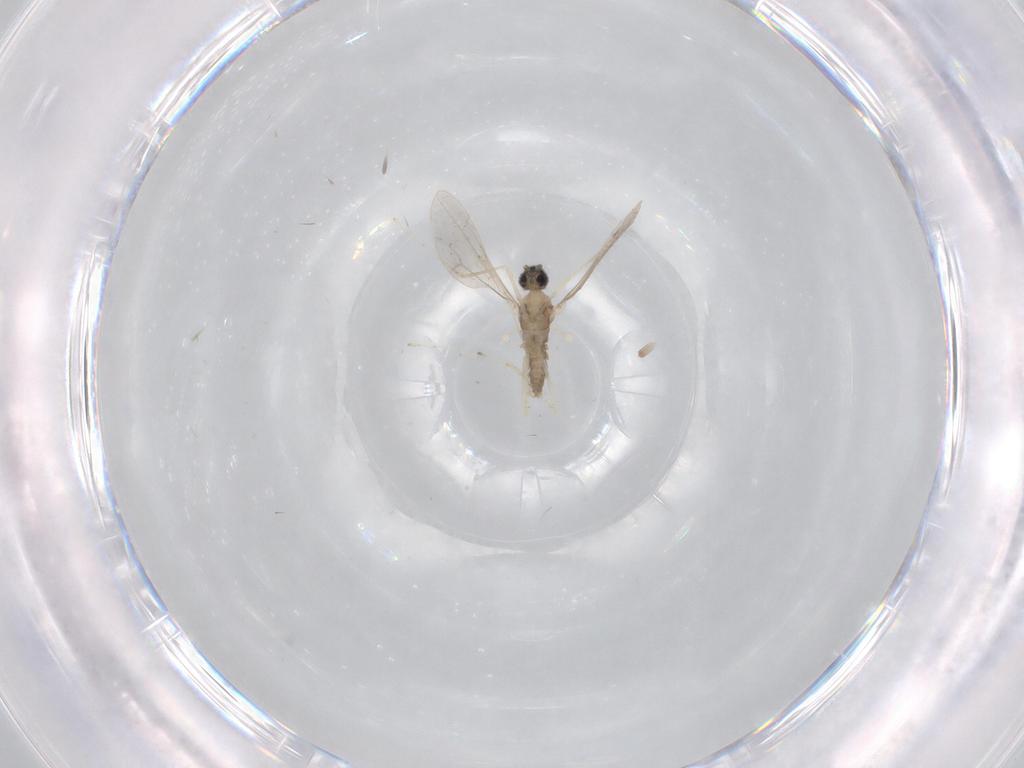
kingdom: Animalia
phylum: Arthropoda
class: Insecta
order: Diptera
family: Cecidomyiidae
